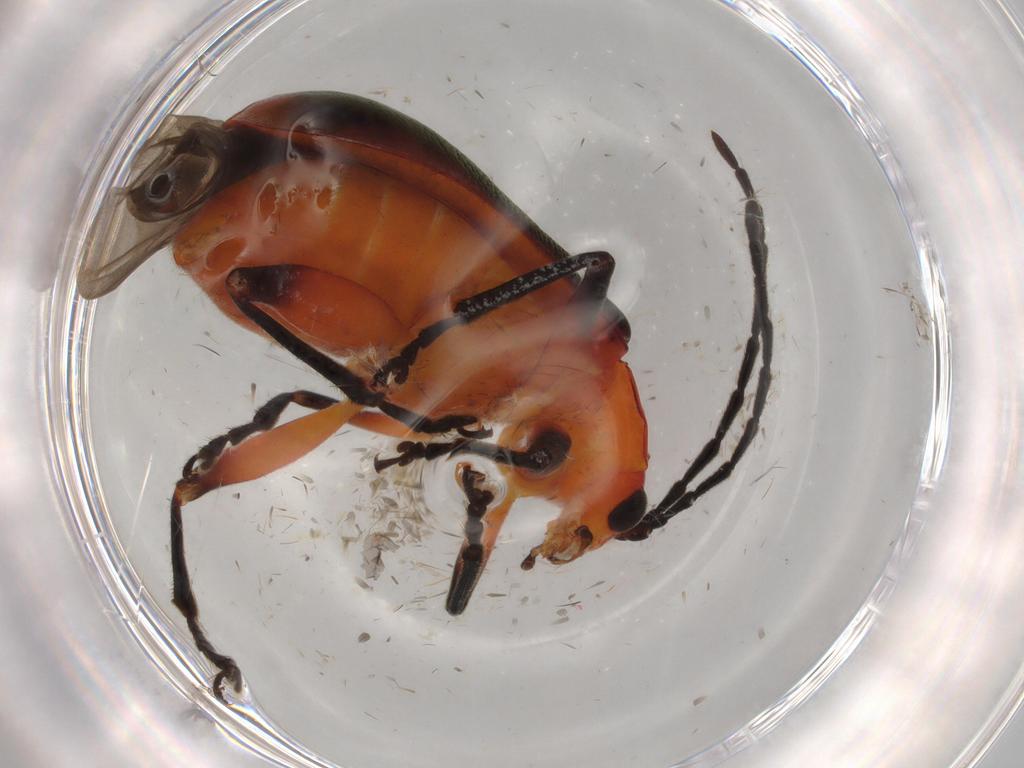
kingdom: Animalia
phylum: Arthropoda
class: Insecta
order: Coleoptera
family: Chrysomelidae
